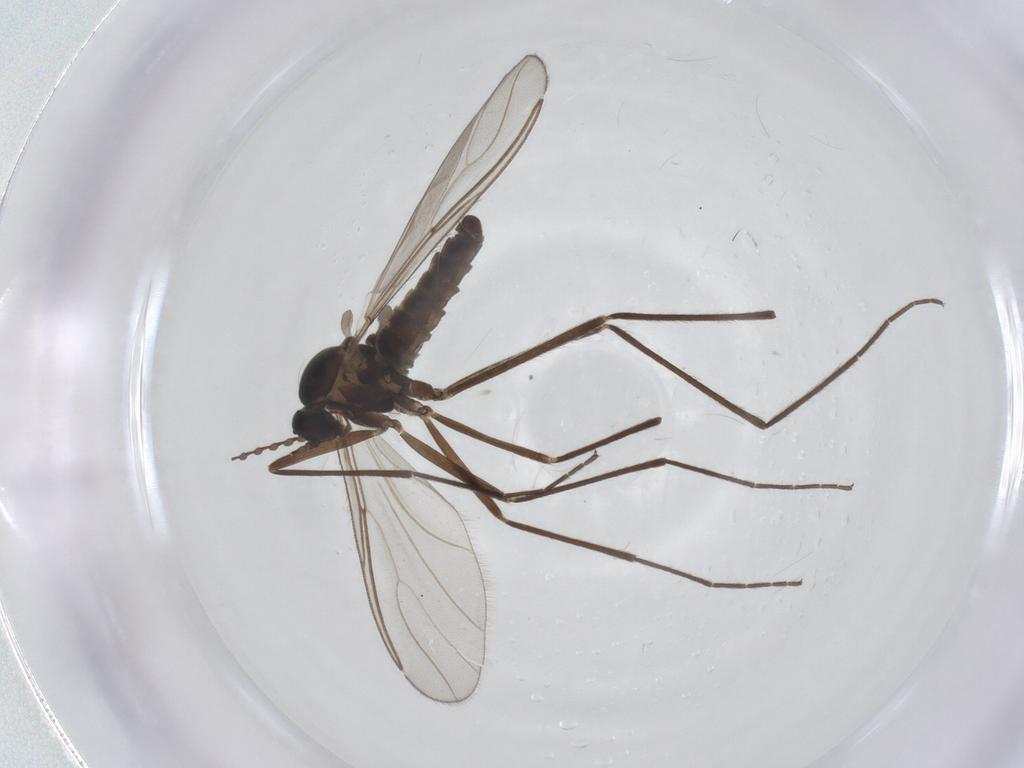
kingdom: Animalia
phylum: Arthropoda
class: Insecta
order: Diptera
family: Cecidomyiidae
